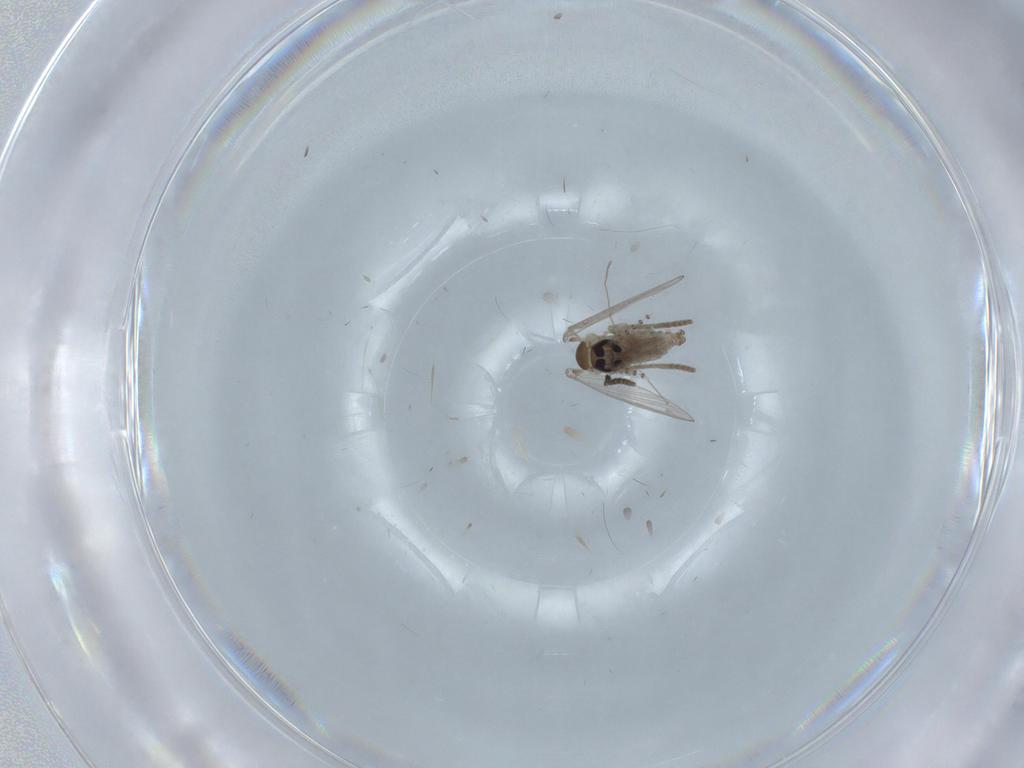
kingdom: Animalia
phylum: Arthropoda
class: Insecta
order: Diptera
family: Psychodidae
